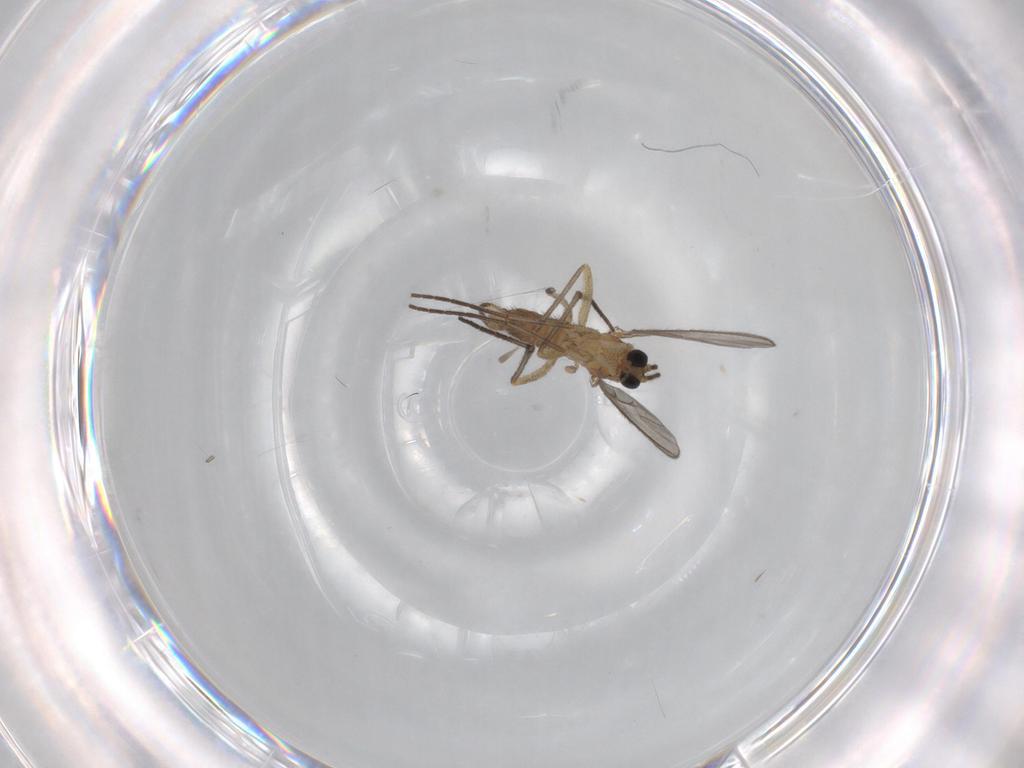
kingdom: Animalia
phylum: Arthropoda
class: Insecta
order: Diptera
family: Sciaridae
